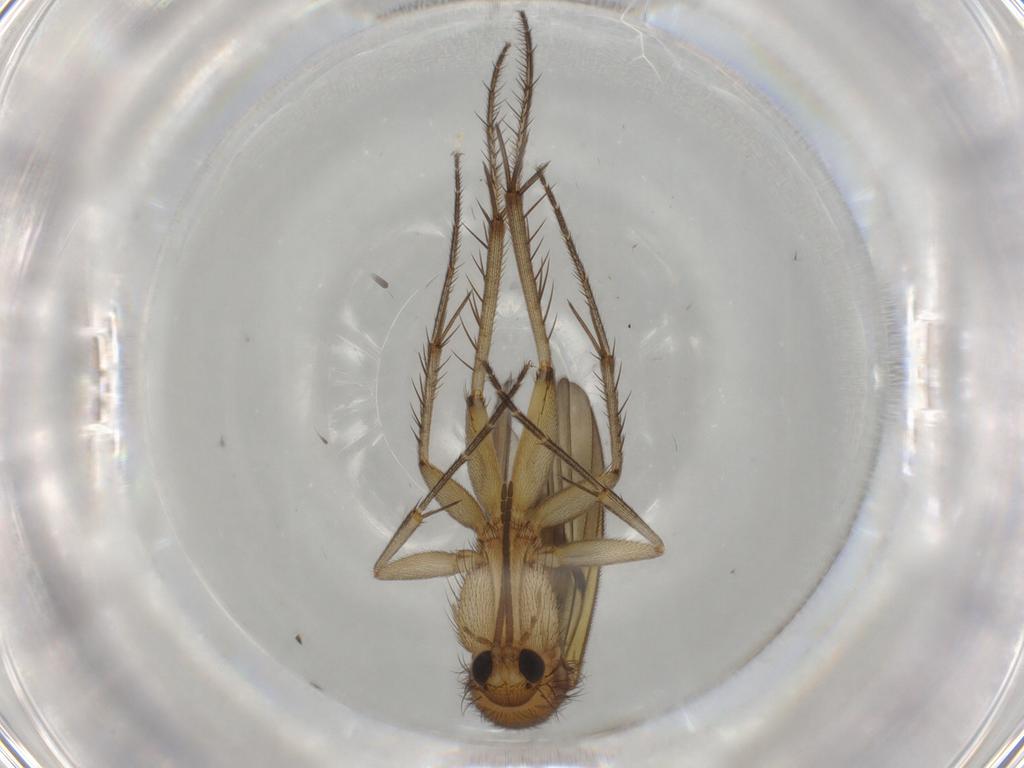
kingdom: Animalia
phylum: Arthropoda
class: Insecta
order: Diptera
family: Mycetophilidae
